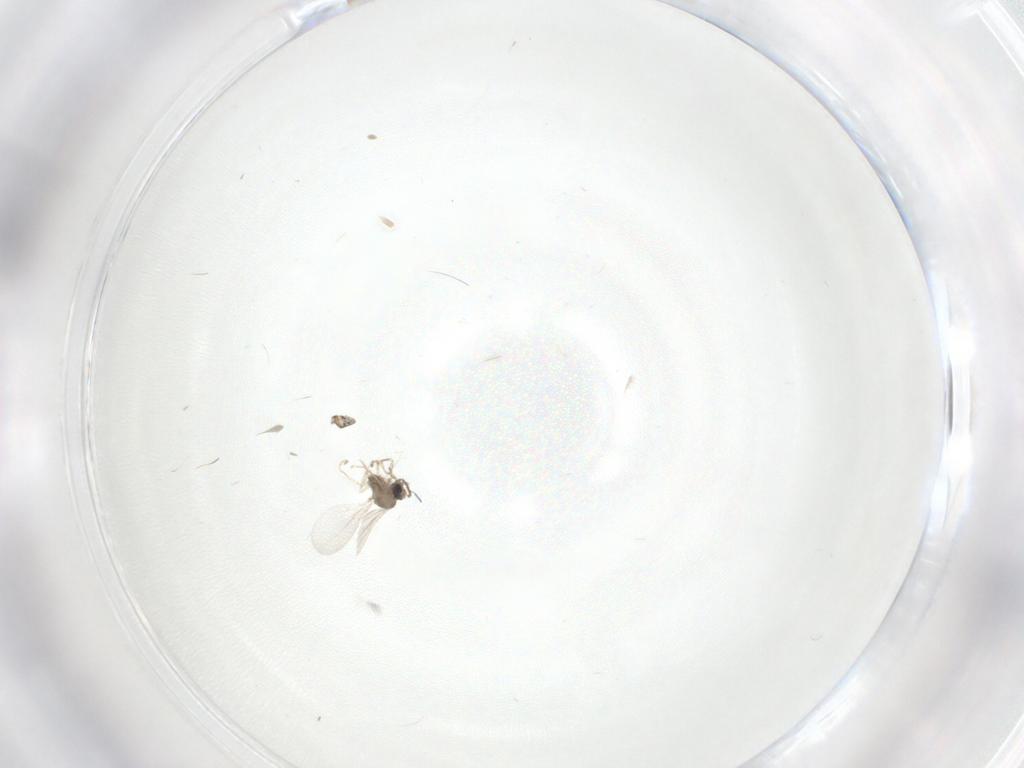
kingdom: Animalia
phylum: Arthropoda
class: Insecta
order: Diptera
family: Cecidomyiidae
